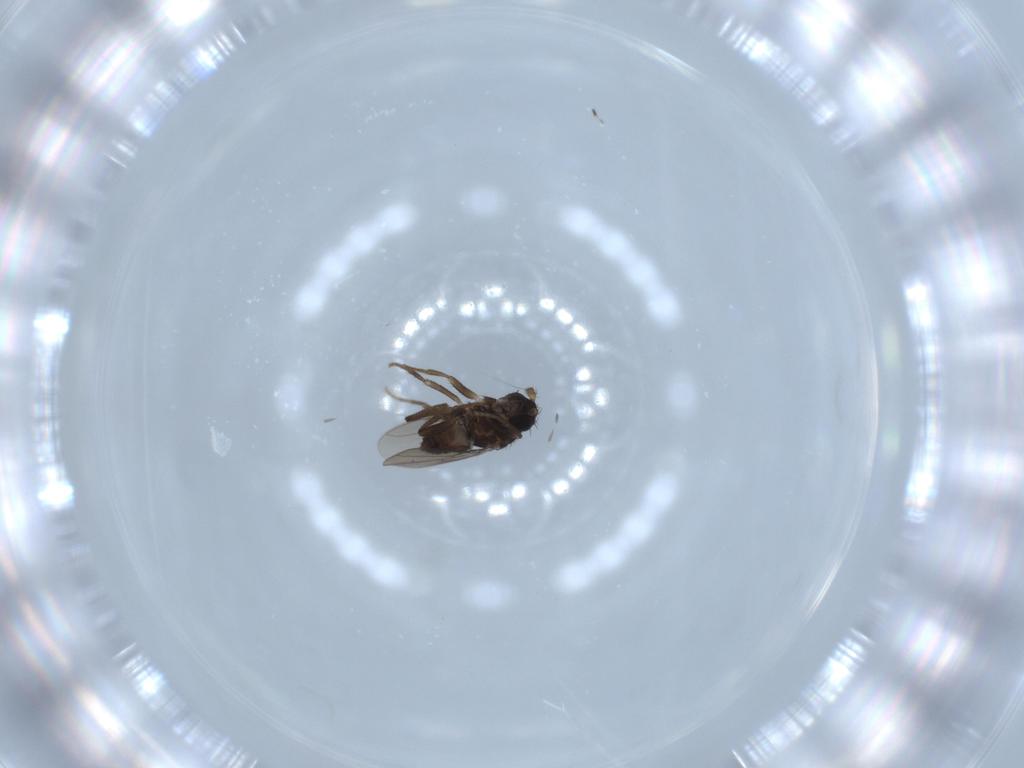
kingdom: Animalia
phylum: Arthropoda
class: Insecta
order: Diptera
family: Sphaeroceridae
